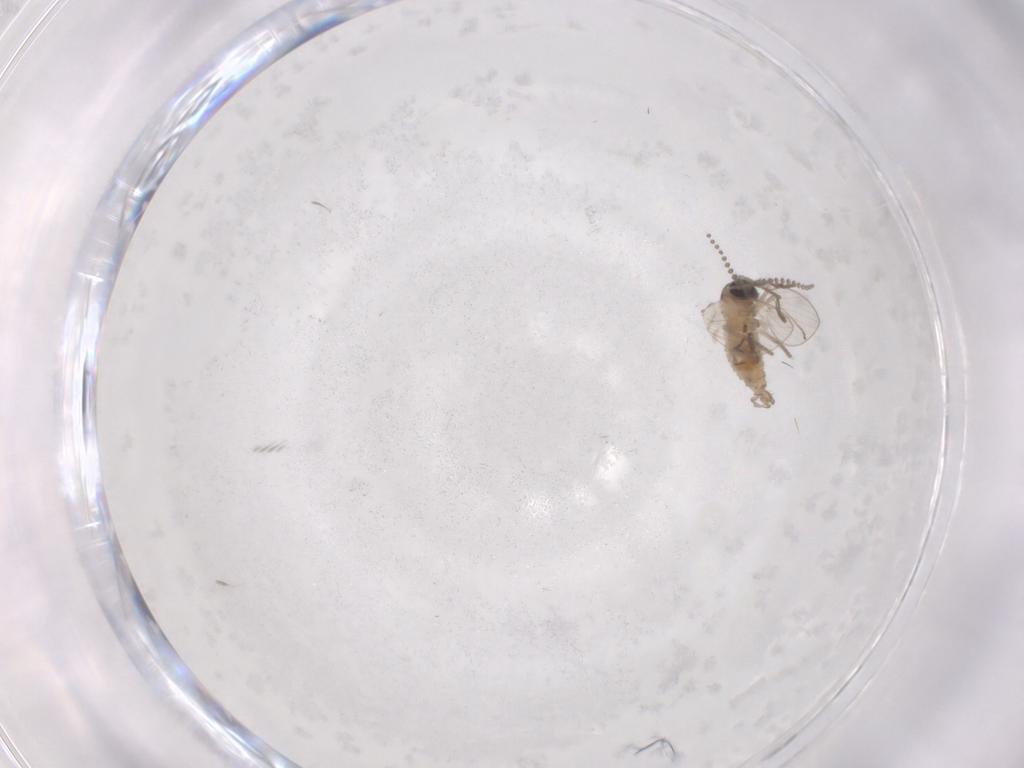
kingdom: Animalia
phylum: Arthropoda
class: Insecta
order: Diptera
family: Psychodidae
